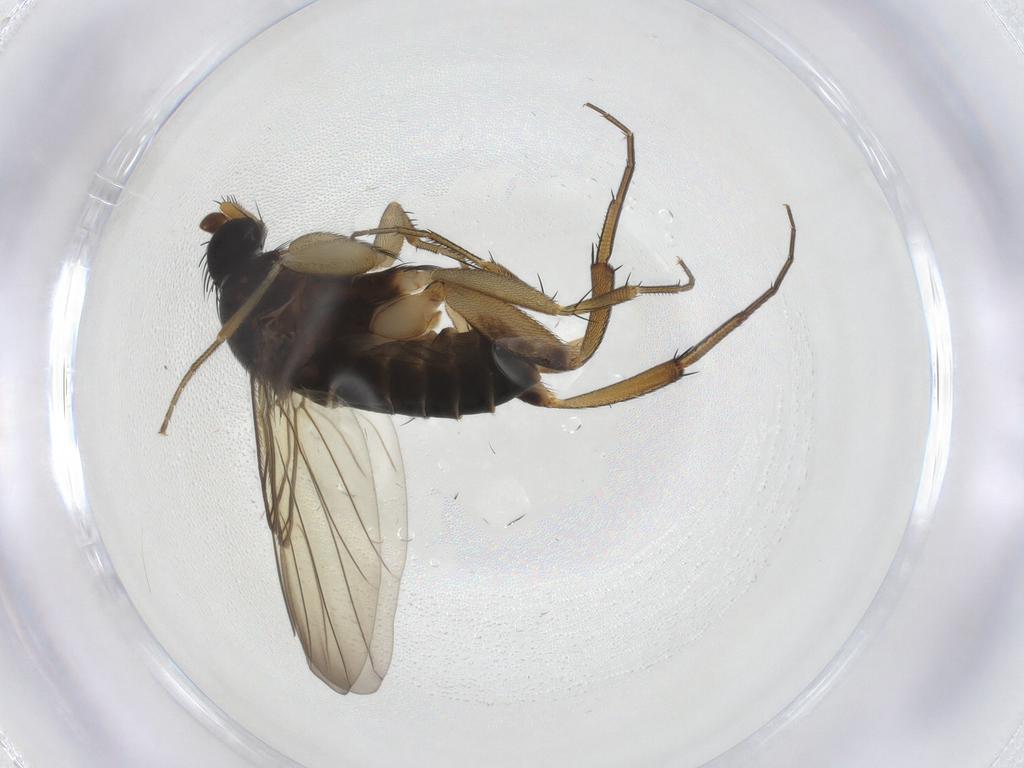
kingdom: Animalia
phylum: Arthropoda
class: Insecta
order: Diptera
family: Phoridae
